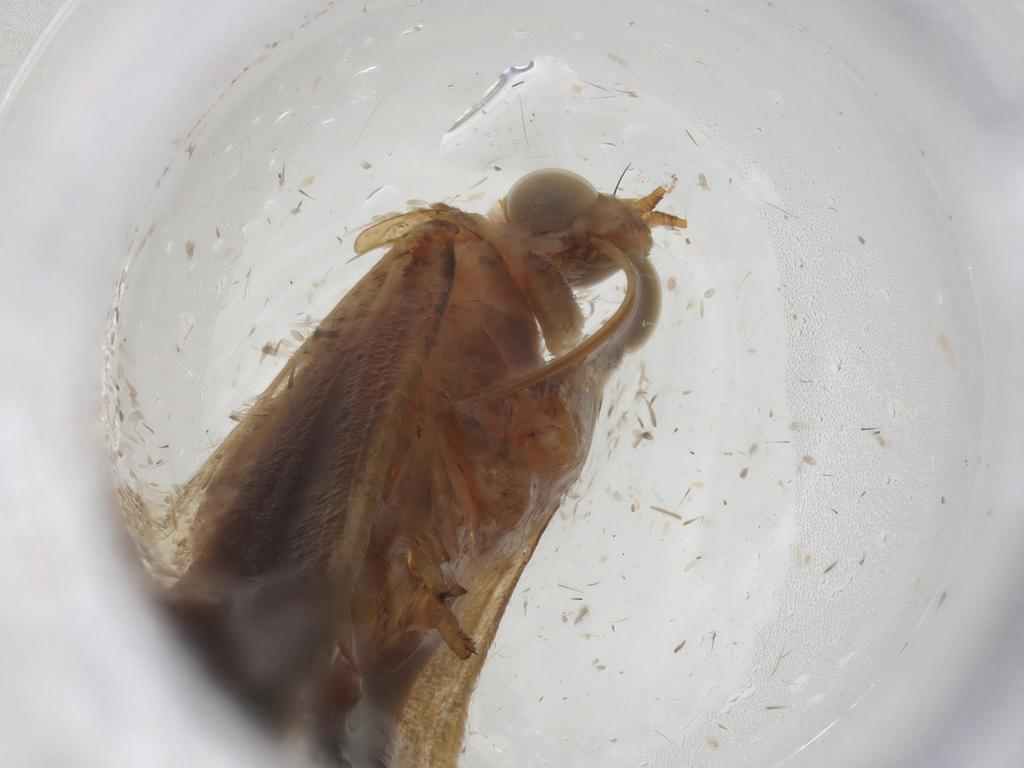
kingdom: Animalia
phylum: Arthropoda
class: Insecta
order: Lepidoptera
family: Pyralidae
